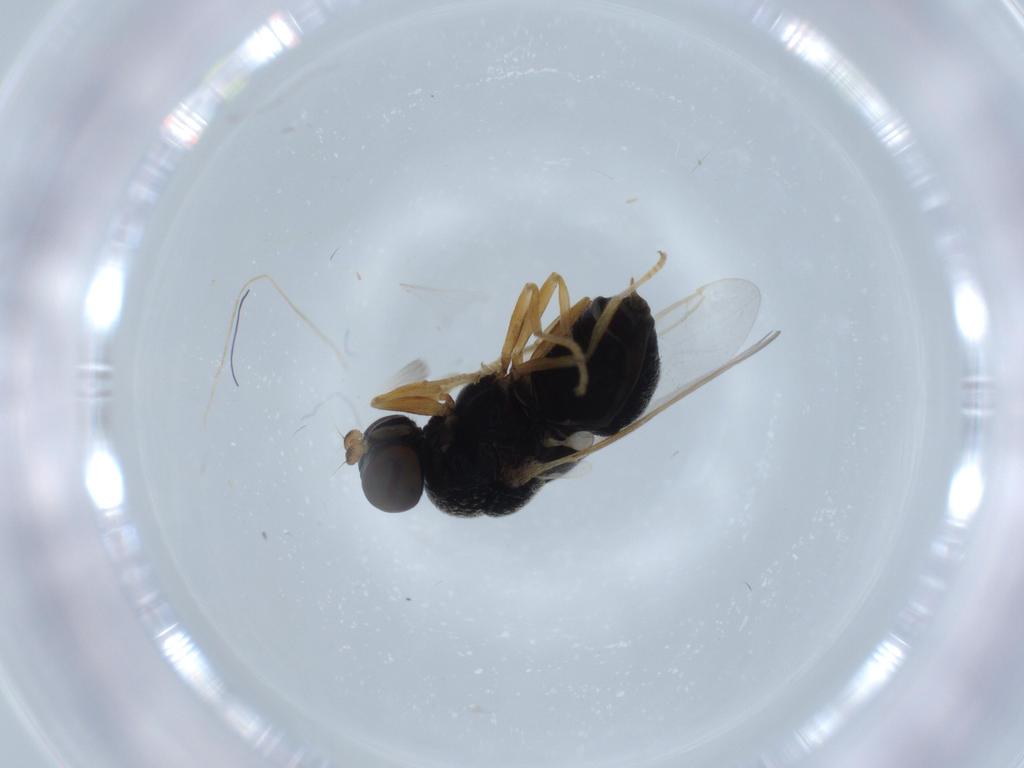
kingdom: Animalia
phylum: Arthropoda
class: Insecta
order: Diptera
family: Stratiomyidae
